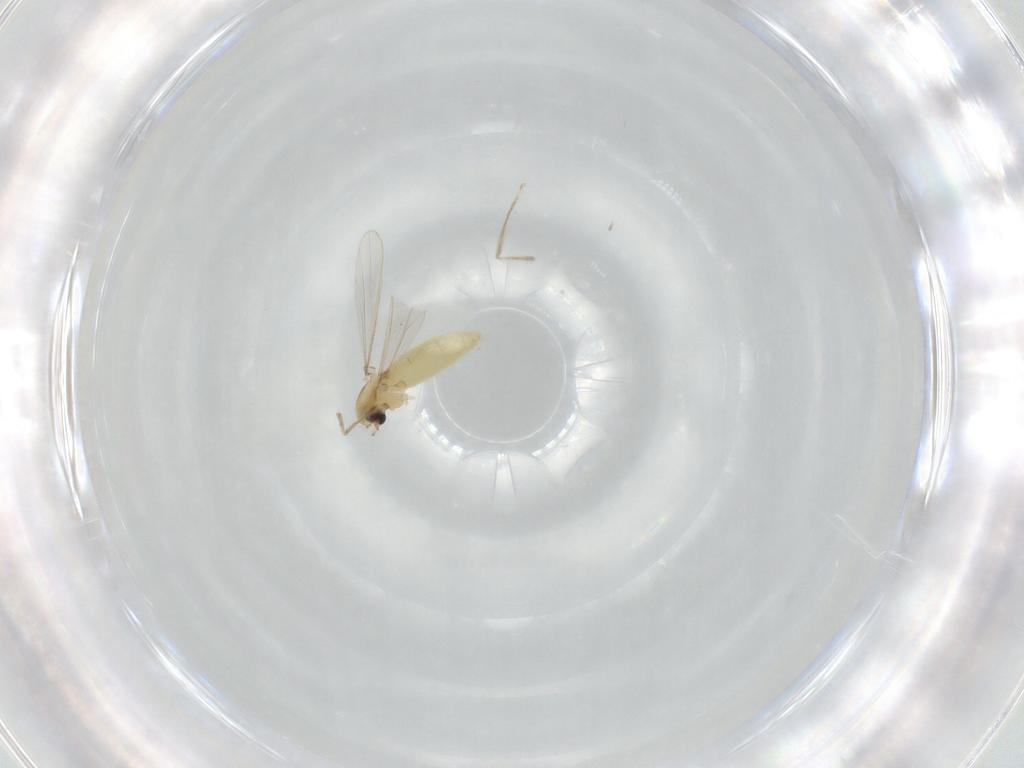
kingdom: Animalia
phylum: Arthropoda
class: Insecta
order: Diptera
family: Chironomidae
